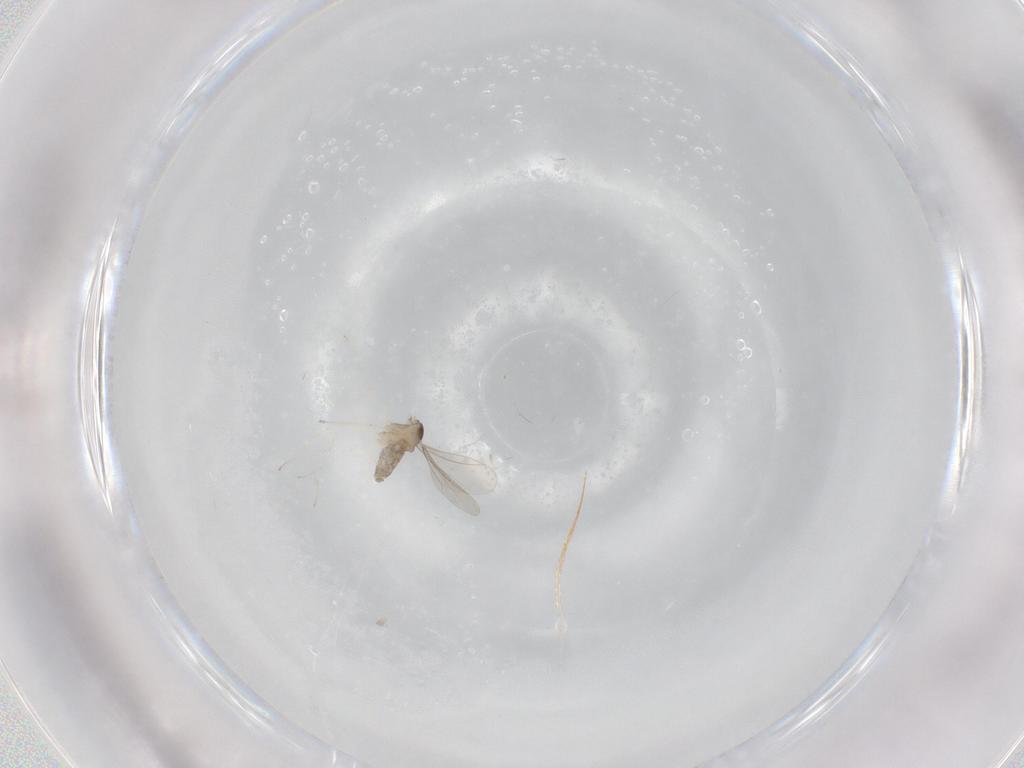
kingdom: Animalia
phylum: Arthropoda
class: Insecta
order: Diptera
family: Cecidomyiidae
